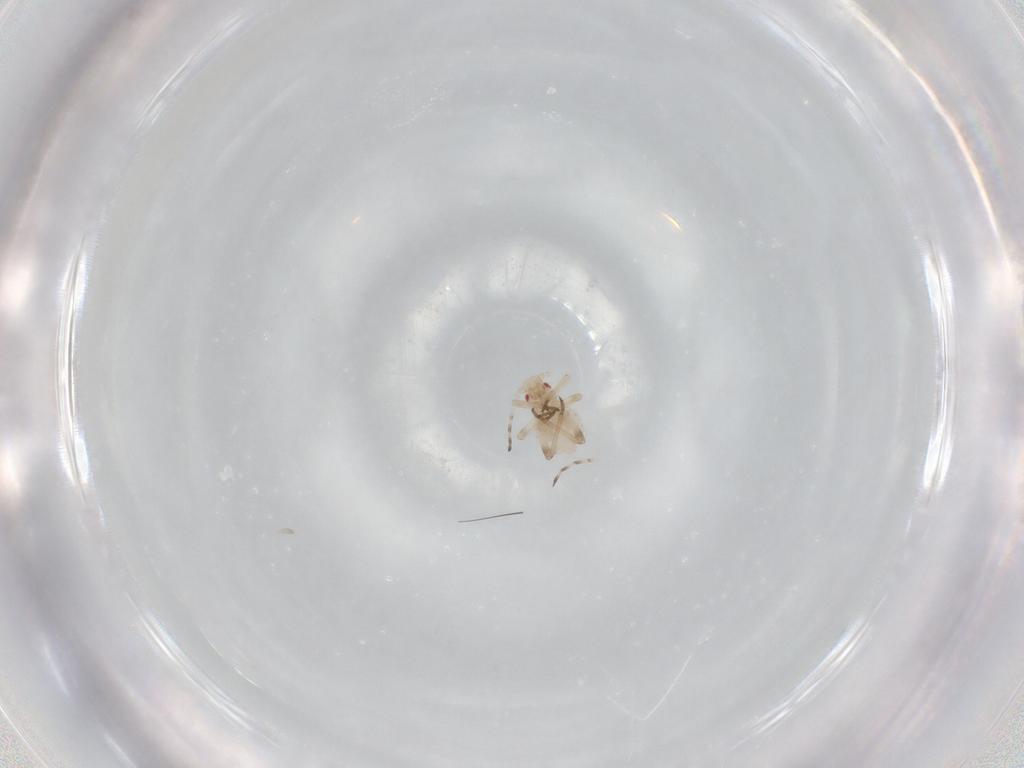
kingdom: Animalia
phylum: Arthropoda
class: Insecta
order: Hemiptera
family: Aphididae
